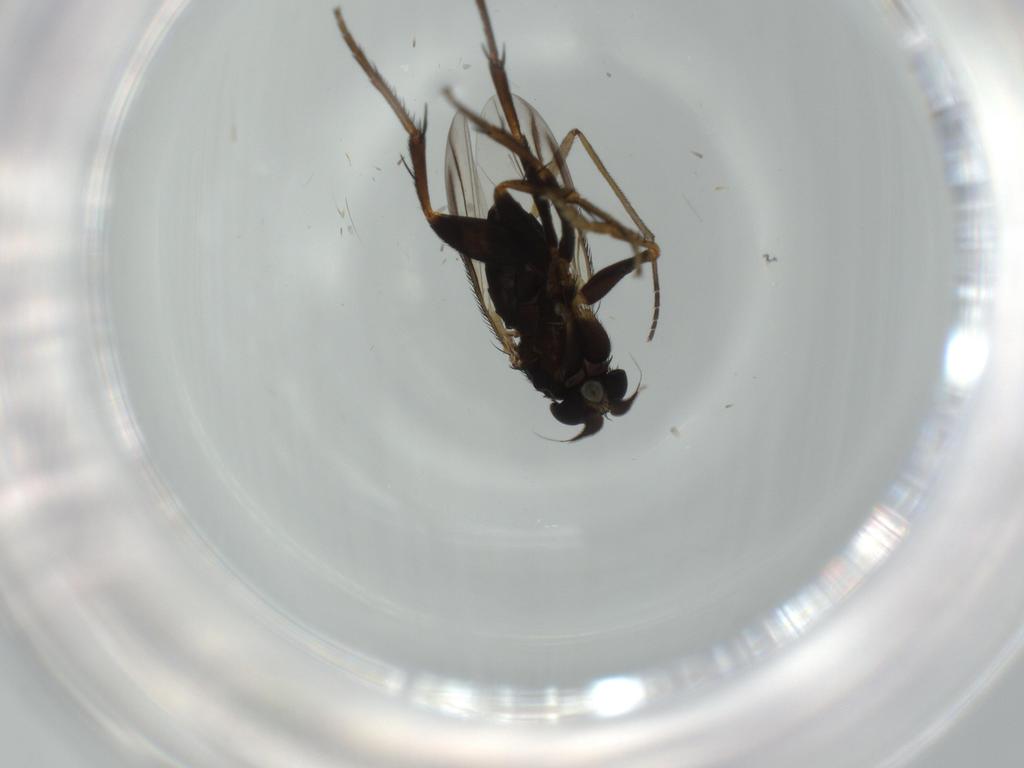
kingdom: Animalia
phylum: Arthropoda
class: Insecta
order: Diptera
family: Phoridae
